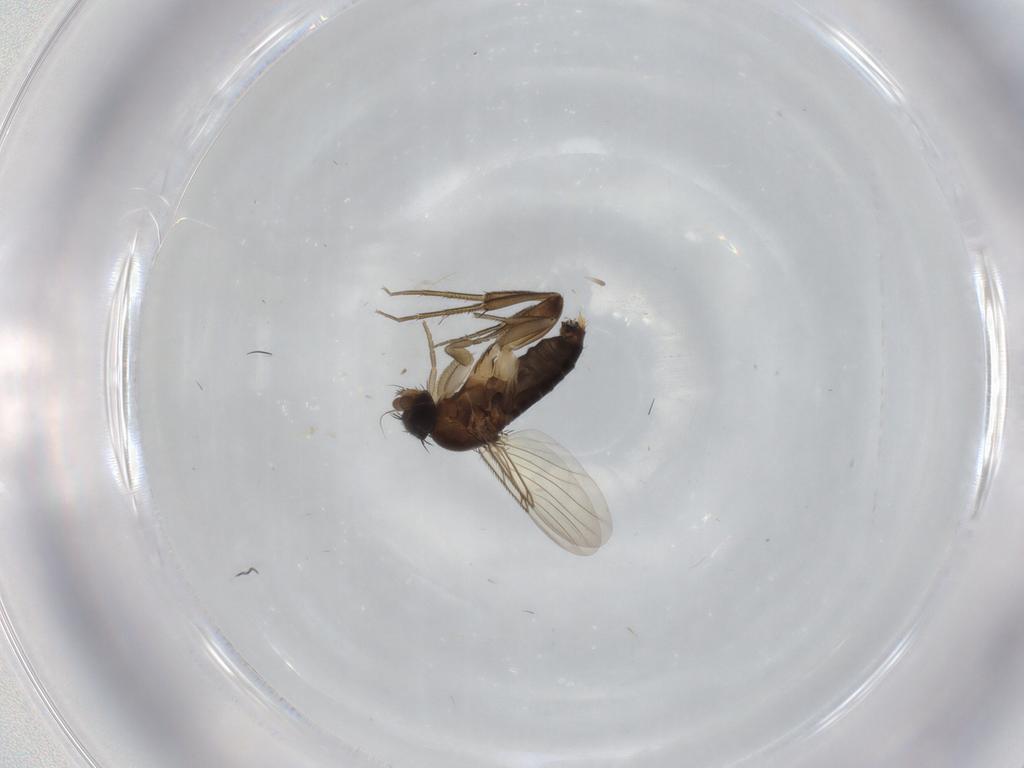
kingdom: Animalia
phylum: Arthropoda
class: Insecta
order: Diptera
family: Phoridae
